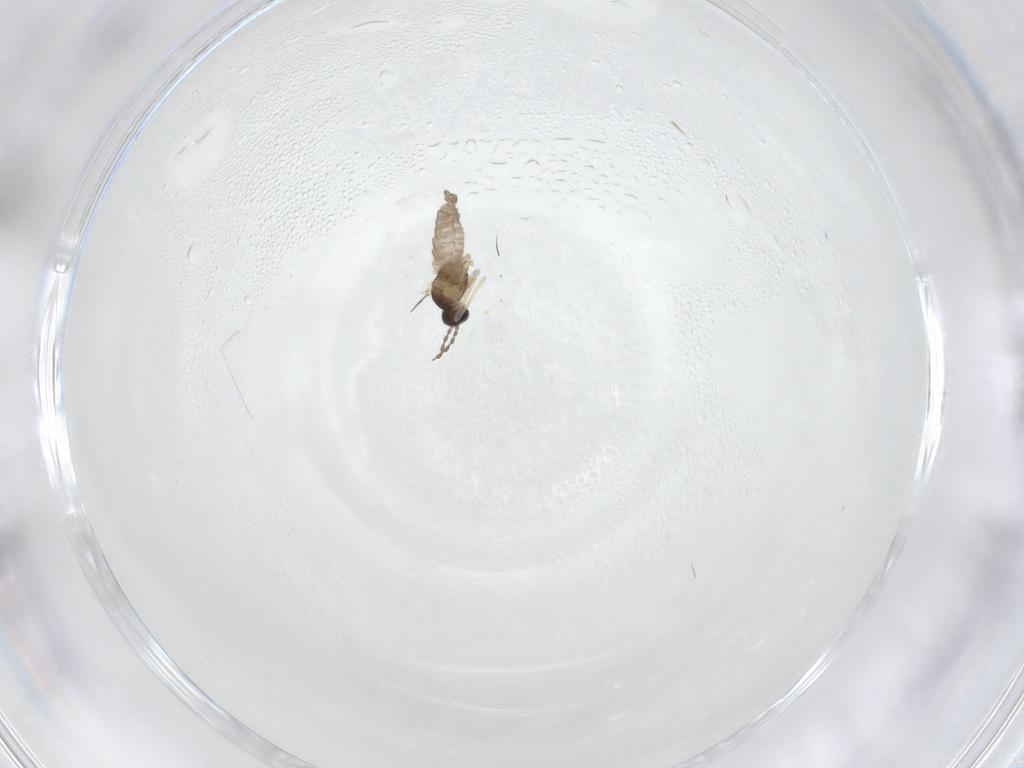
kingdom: Animalia
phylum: Arthropoda
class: Insecta
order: Diptera
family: Cecidomyiidae
